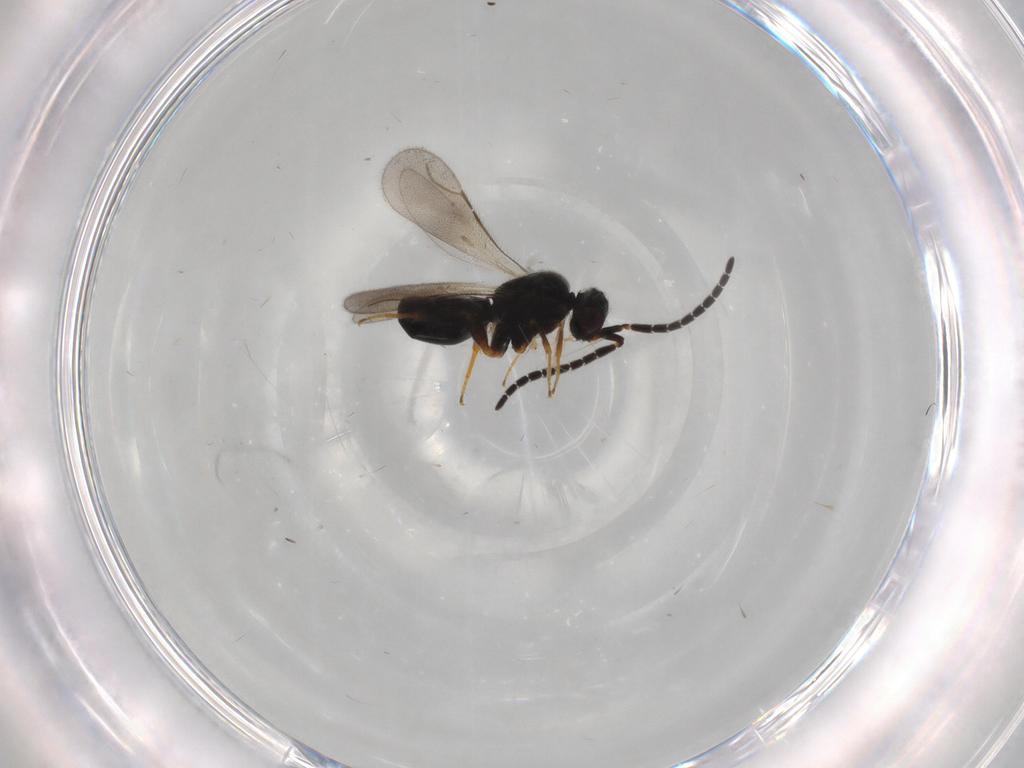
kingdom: Animalia
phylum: Arthropoda
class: Insecta
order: Hymenoptera
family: Ceraphronidae
